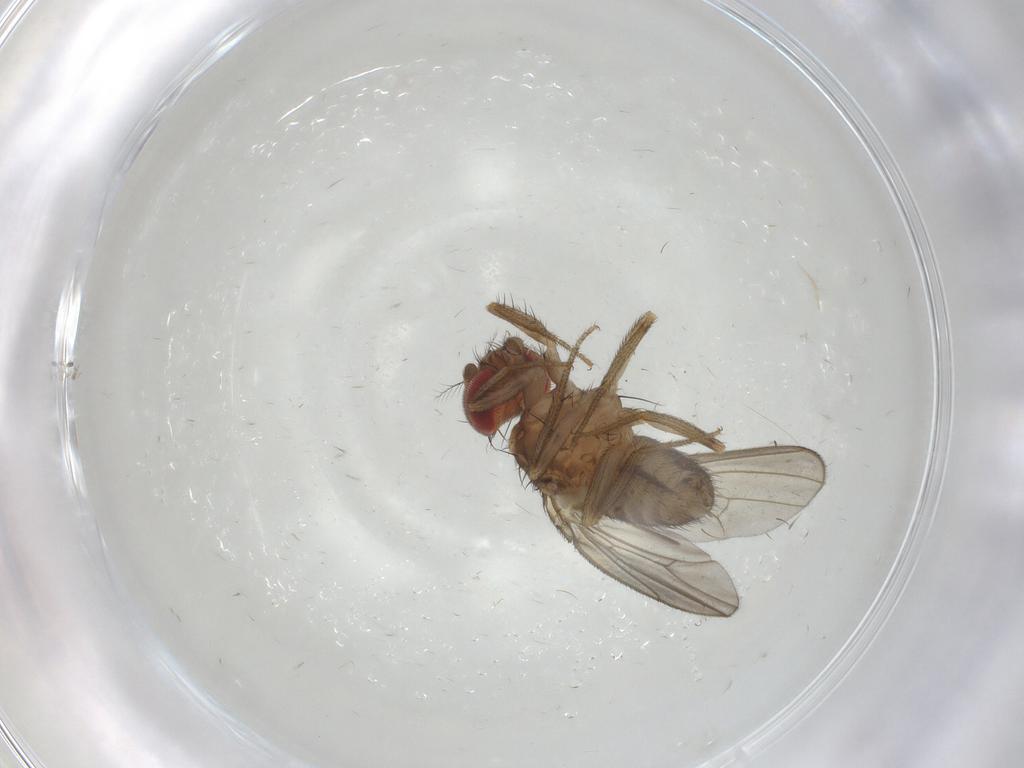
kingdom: Animalia
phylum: Arthropoda
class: Insecta
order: Diptera
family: Drosophilidae
